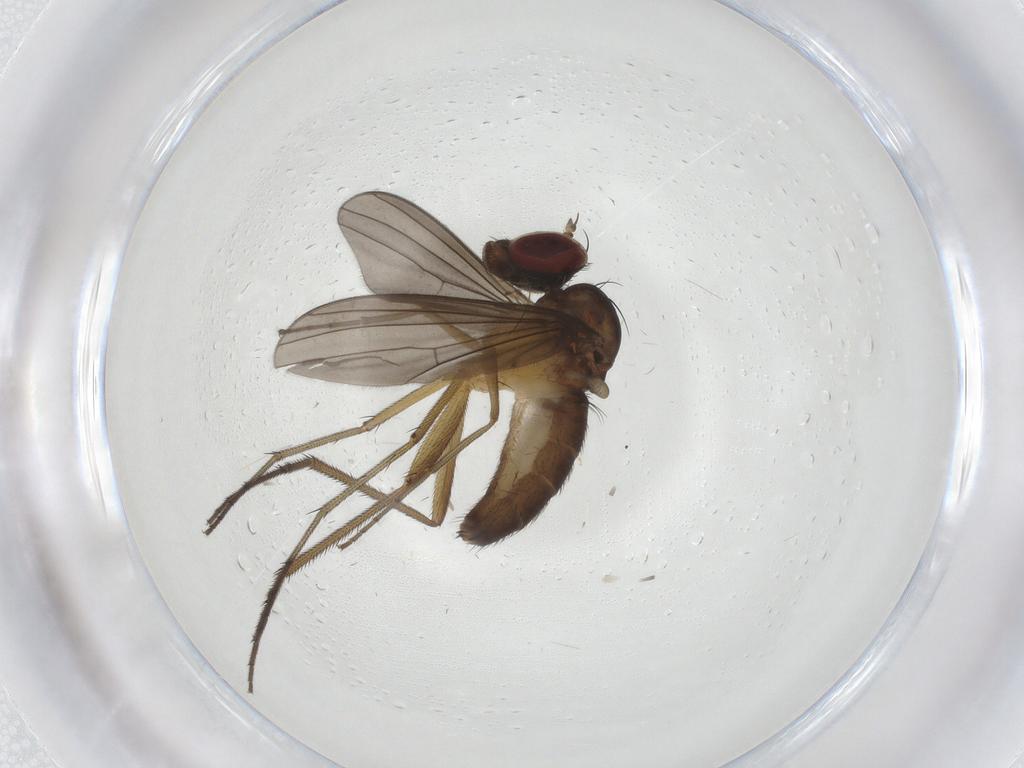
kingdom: Animalia
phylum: Arthropoda
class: Insecta
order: Diptera
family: Dolichopodidae
